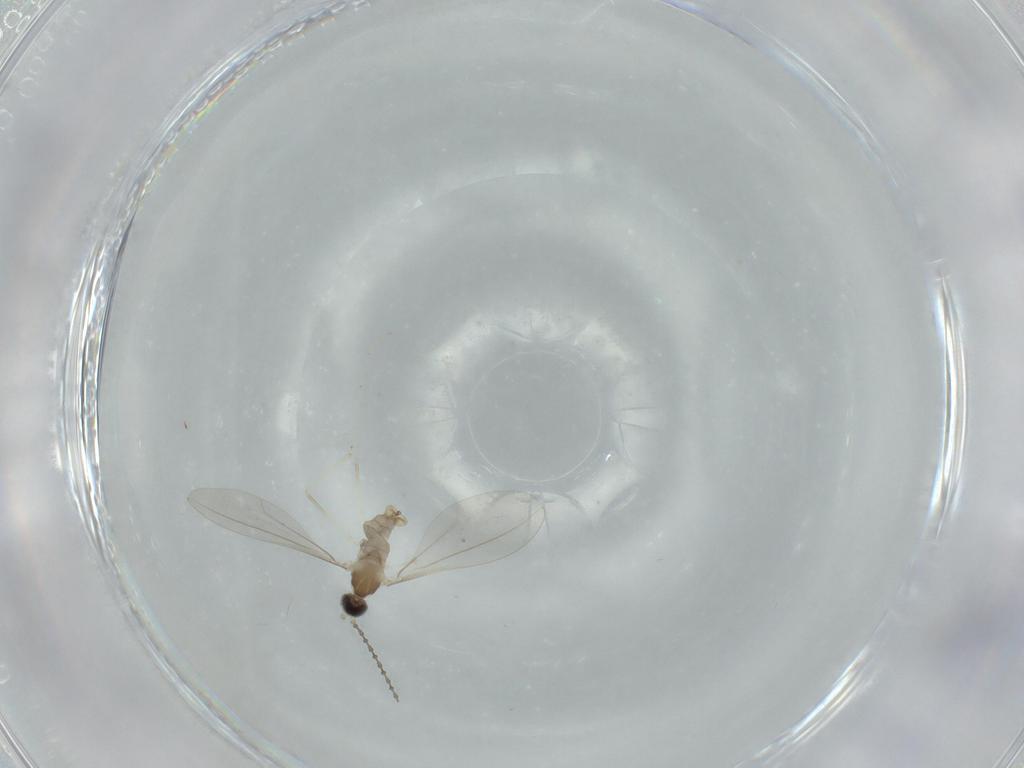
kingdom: Animalia
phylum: Arthropoda
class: Insecta
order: Diptera
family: Cecidomyiidae
